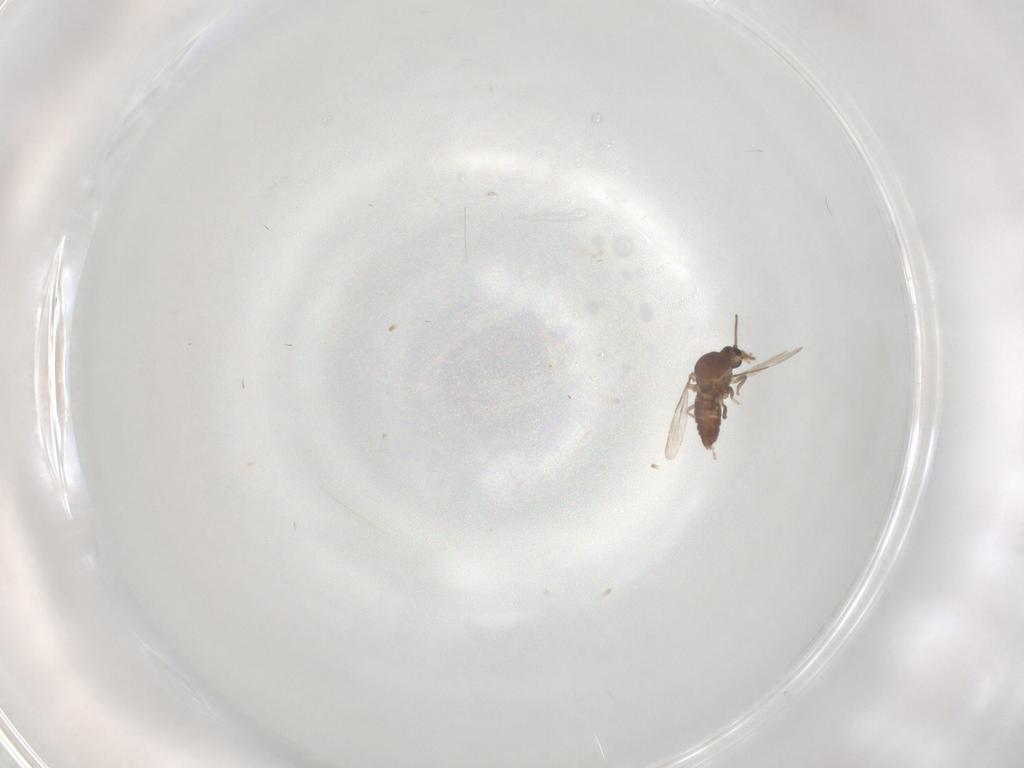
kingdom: Animalia
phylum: Arthropoda
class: Insecta
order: Diptera
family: Ceratopogonidae
